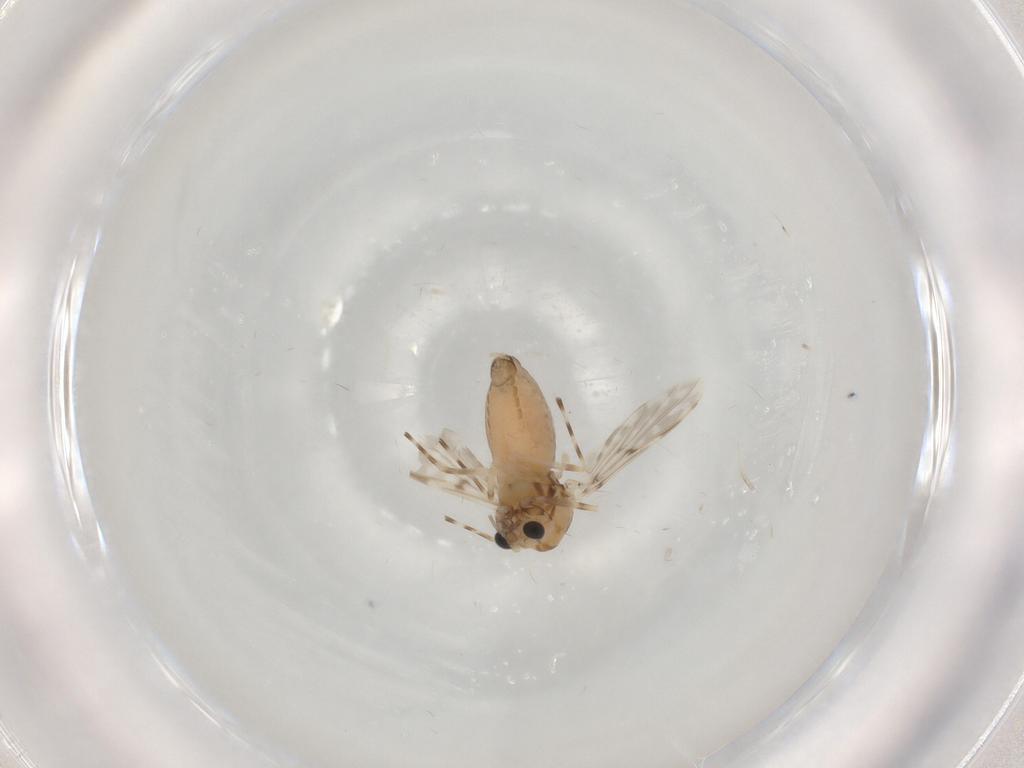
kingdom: Animalia
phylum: Arthropoda
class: Insecta
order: Diptera
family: Chironomidae
